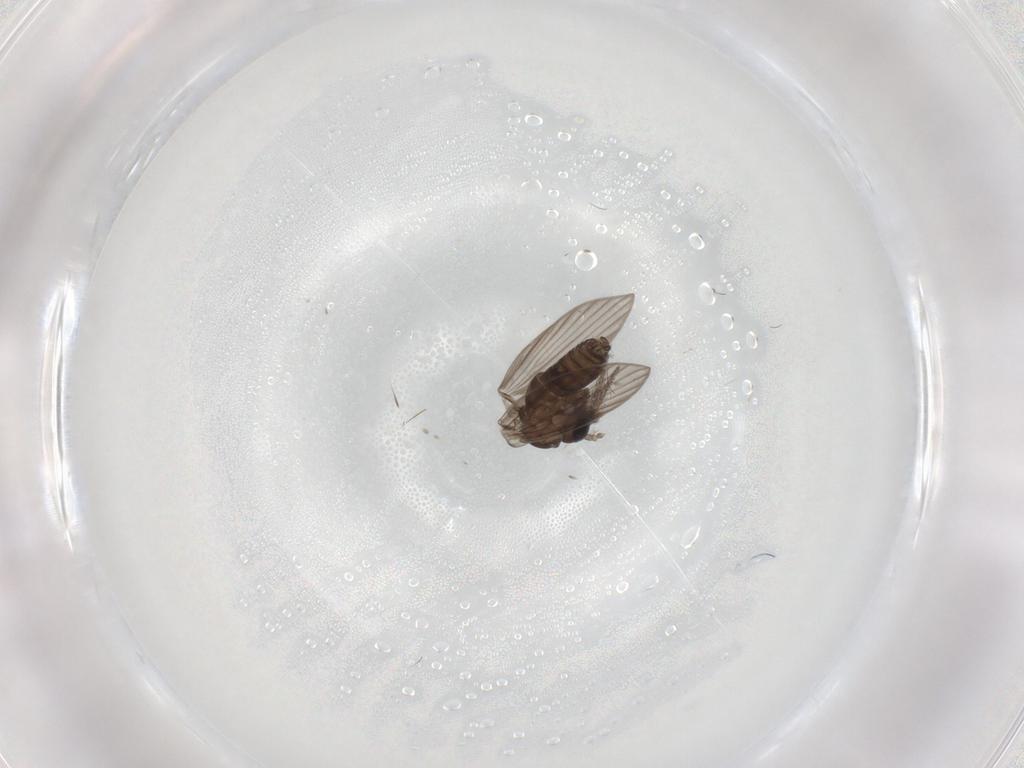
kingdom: Animalia
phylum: Arthropoda
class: Insecta
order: Diptera
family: Psychodidae
